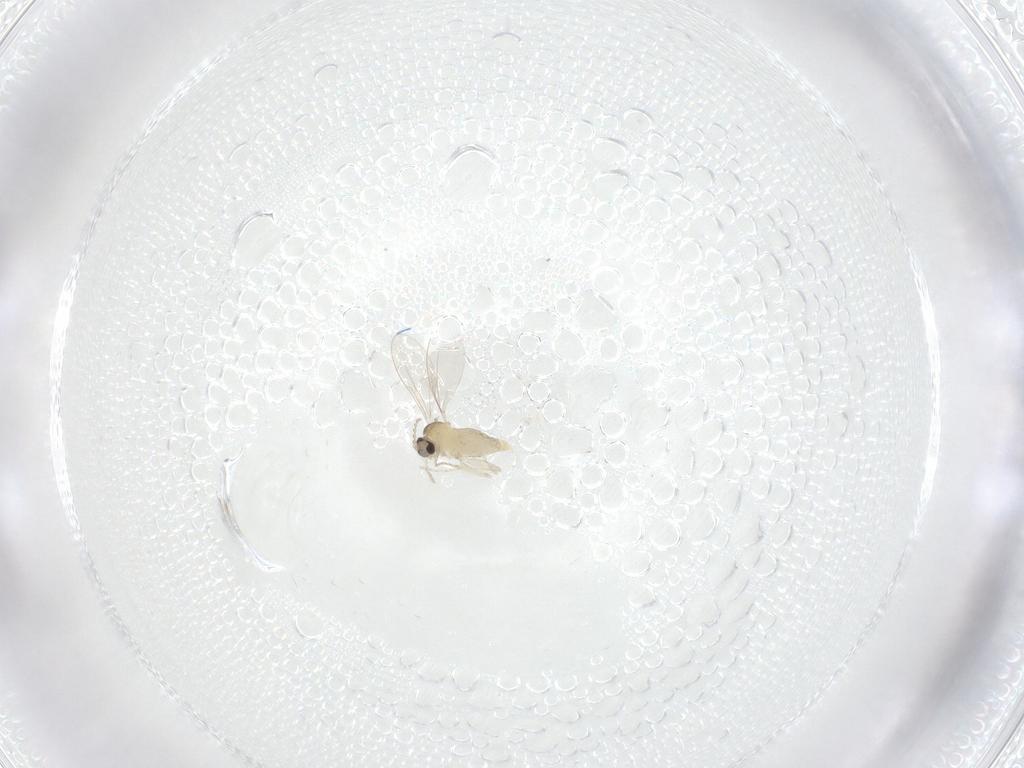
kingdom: Animalia
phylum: Arthropoda
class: Insecta
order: Diptera
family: Cecidomyiidae
